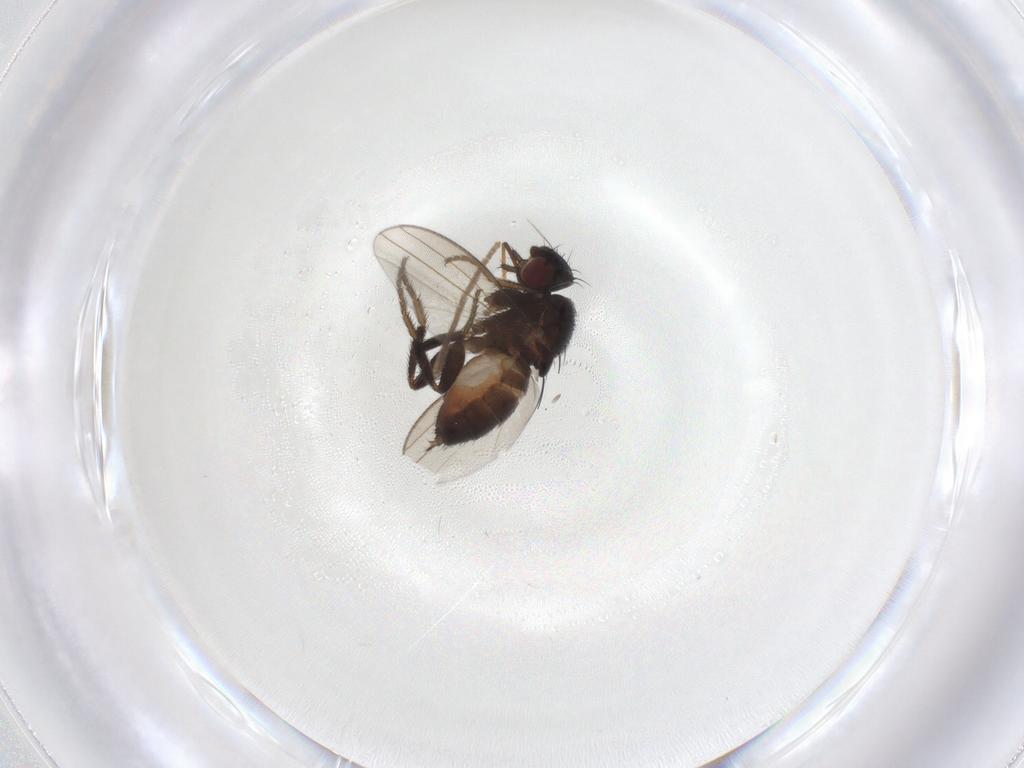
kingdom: Animalia
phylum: Arthropoda
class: Insecta
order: Diptera
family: Milichiidae
